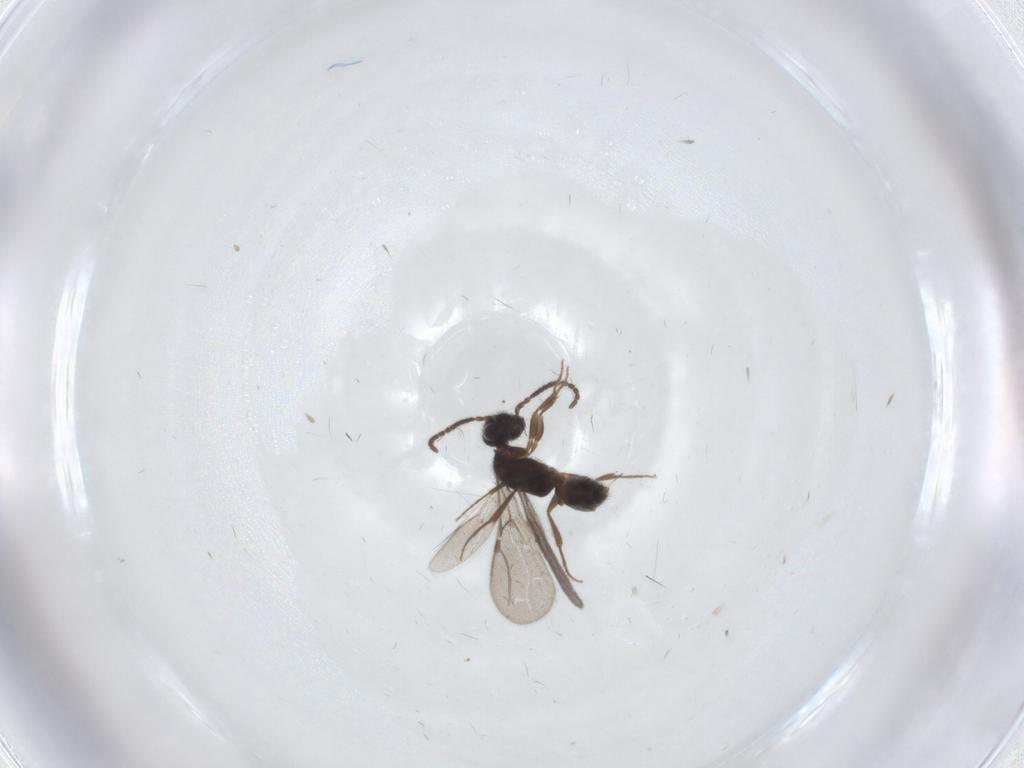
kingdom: Animalia
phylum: Arthropoda
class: Insecta
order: Hymenoptera
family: Bethylidae
